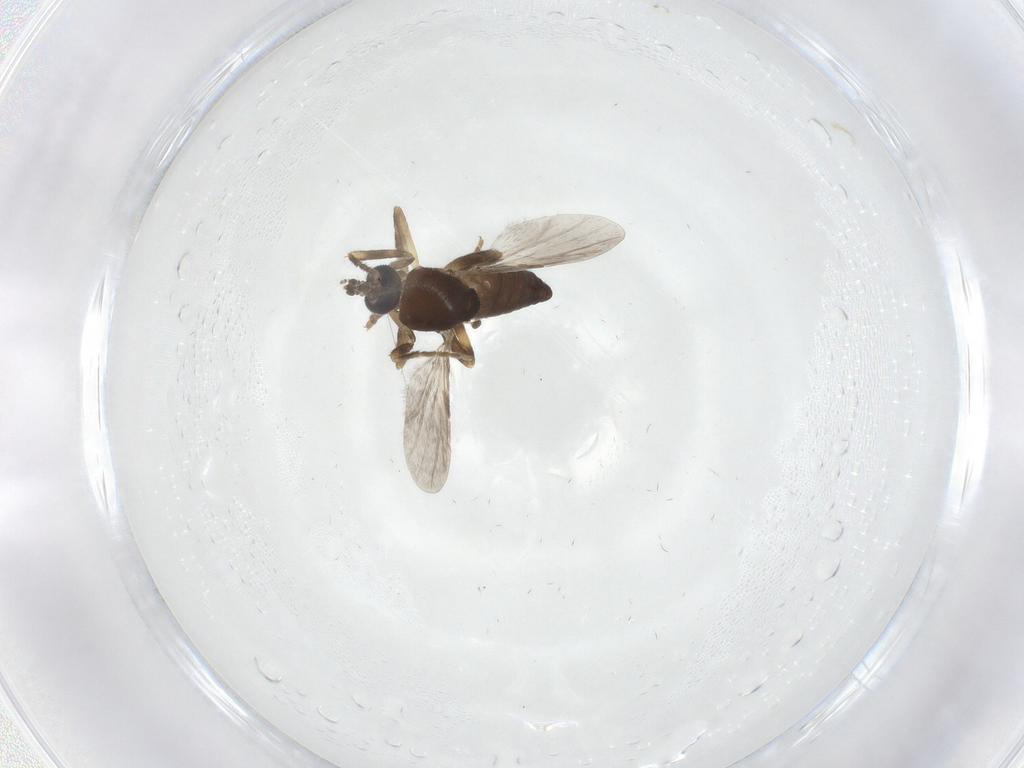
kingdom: Animalia
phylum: Arthropoda
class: Insecta
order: Diptera
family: Ceratopogonidae
